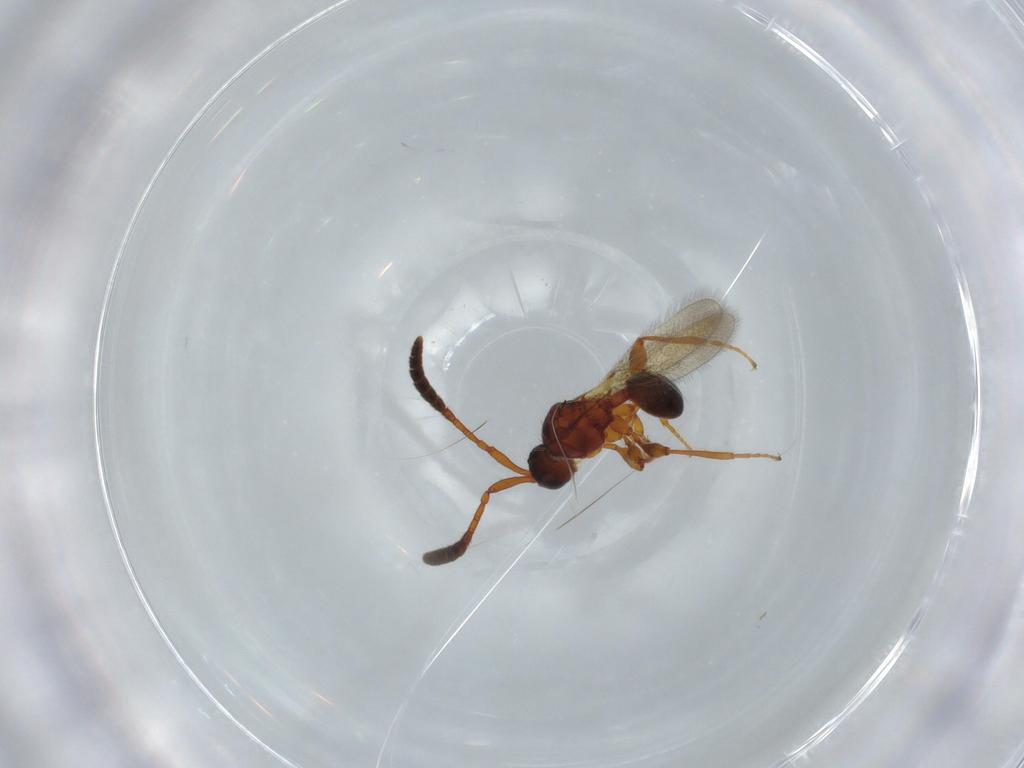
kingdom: Animalia
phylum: Arthropoda
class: Insecta
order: Hymenoptera
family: Diapriidae
